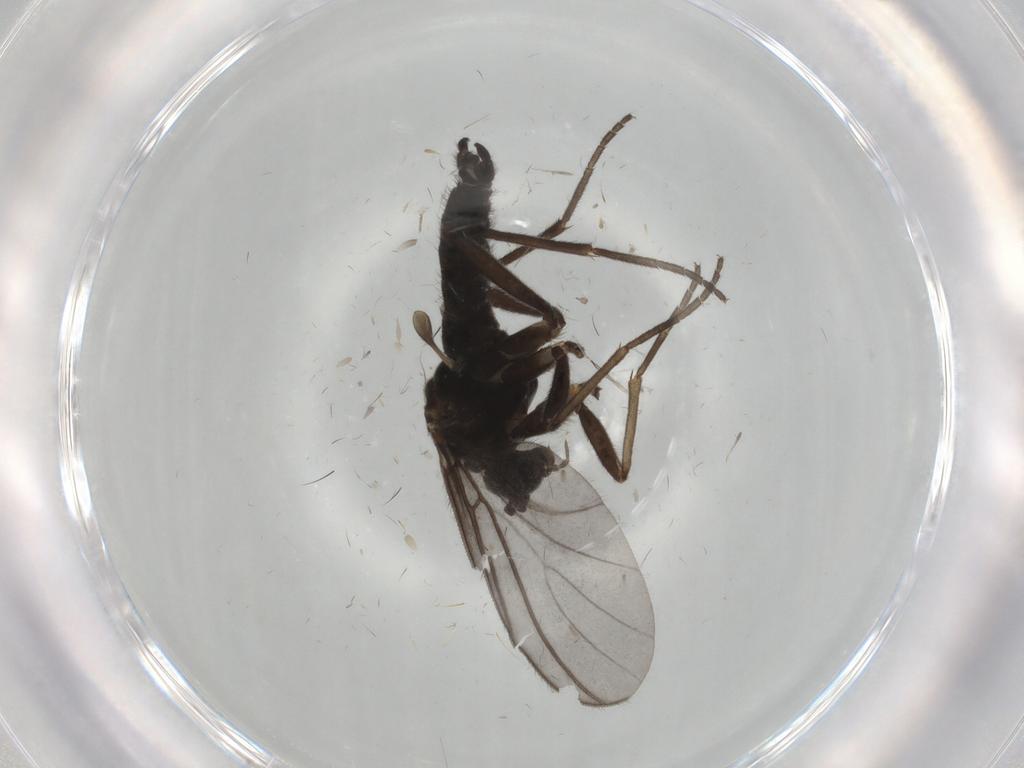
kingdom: Animalia
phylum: Arthropoda
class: Insecta
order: Diptera
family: Sciaridae
